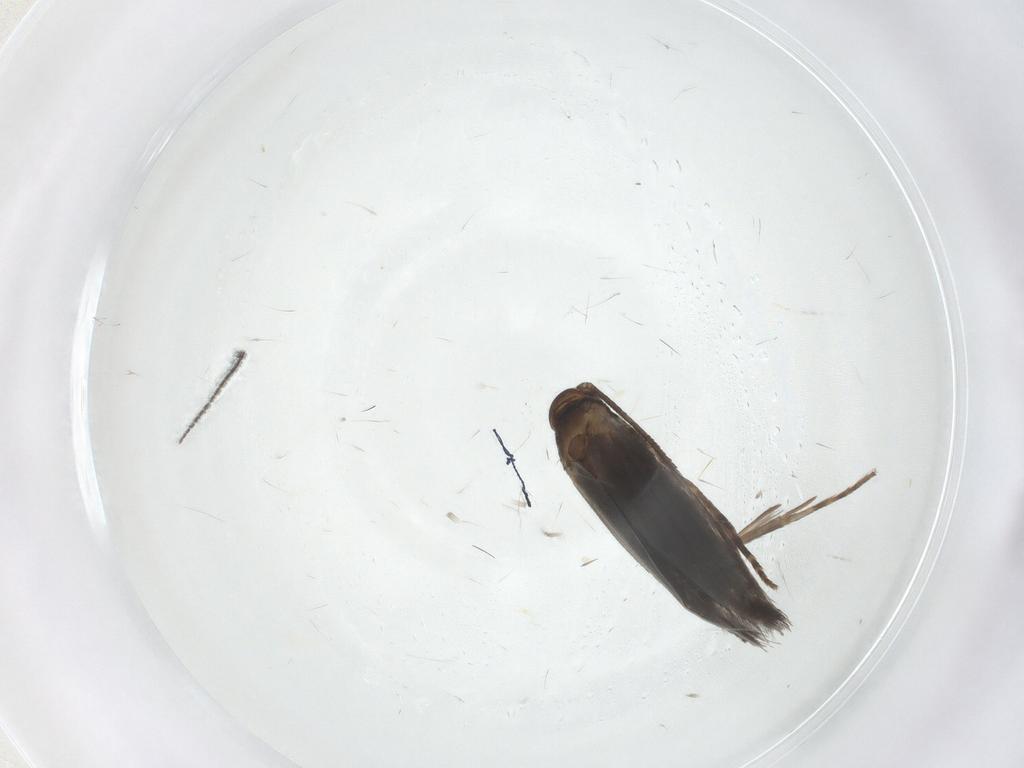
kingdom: Animalia
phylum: Arthropoda
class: Insecta
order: Lepidoptera
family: Elachistidae
